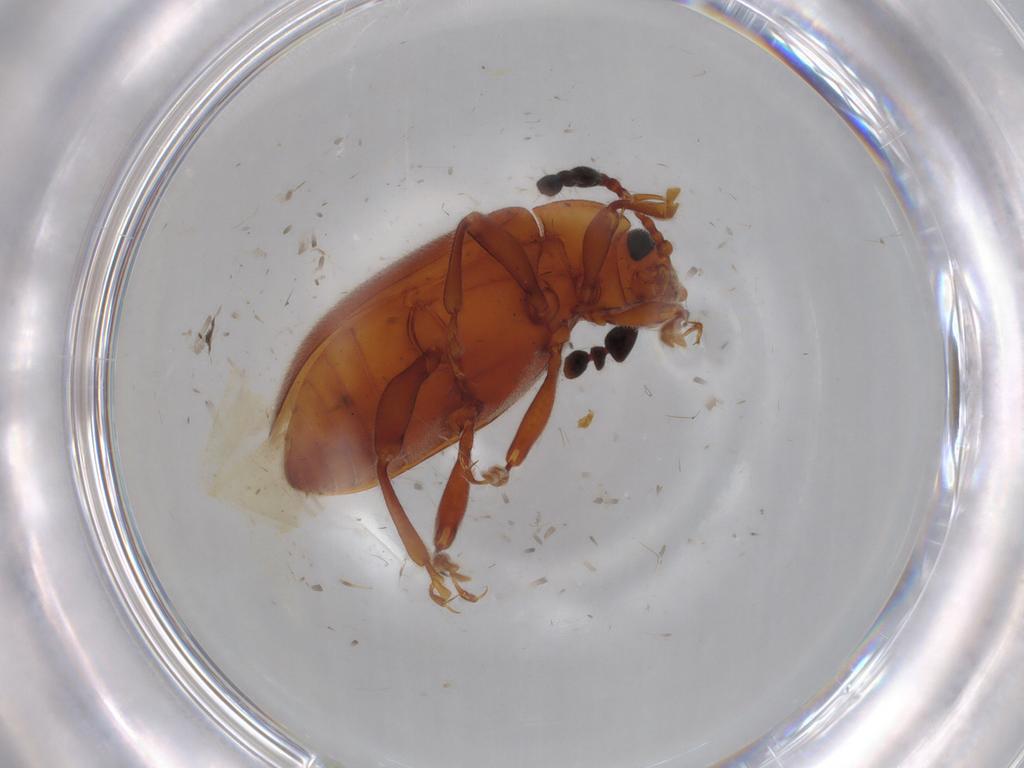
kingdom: Animalia
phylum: Arthropoda
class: Insecta
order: Coleoptera
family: Endomychidae
